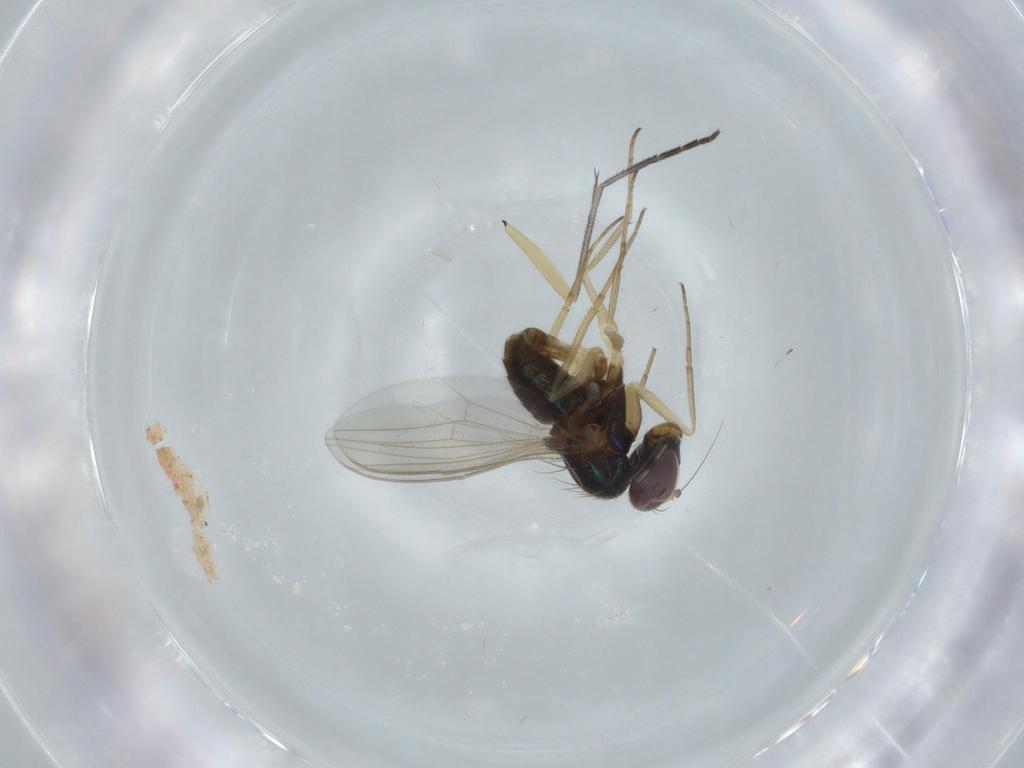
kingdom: Animalia
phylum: Arthropoda
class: Insecta
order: Diptera
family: Dolichopodidae
